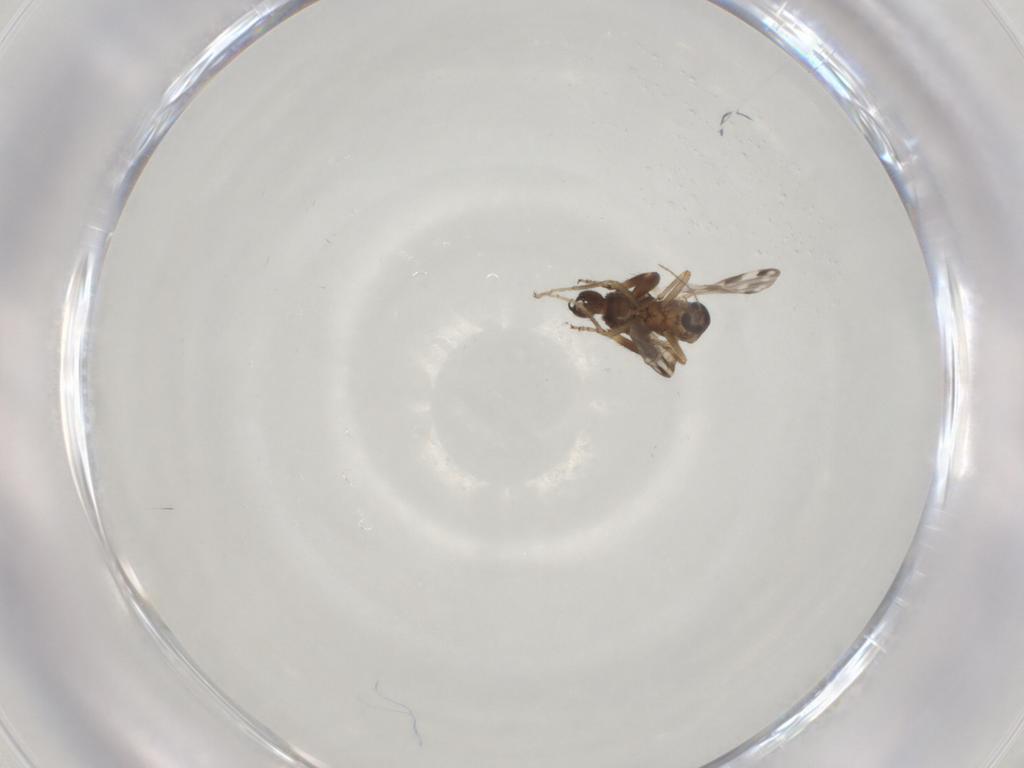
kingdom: Animalia
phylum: Arthropoda
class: Insecta
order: Diptera
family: Ceratopogonidae
